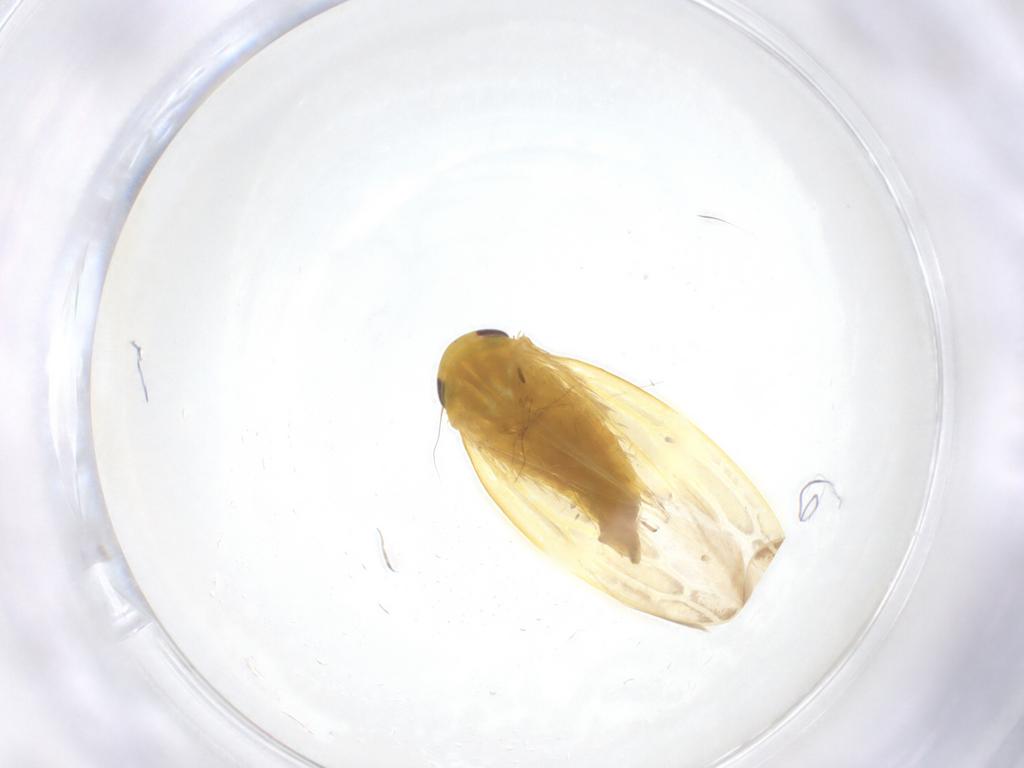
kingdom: Animalia
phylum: Arthropoda
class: Insecta
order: Hemiptera
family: Cicadellidae
